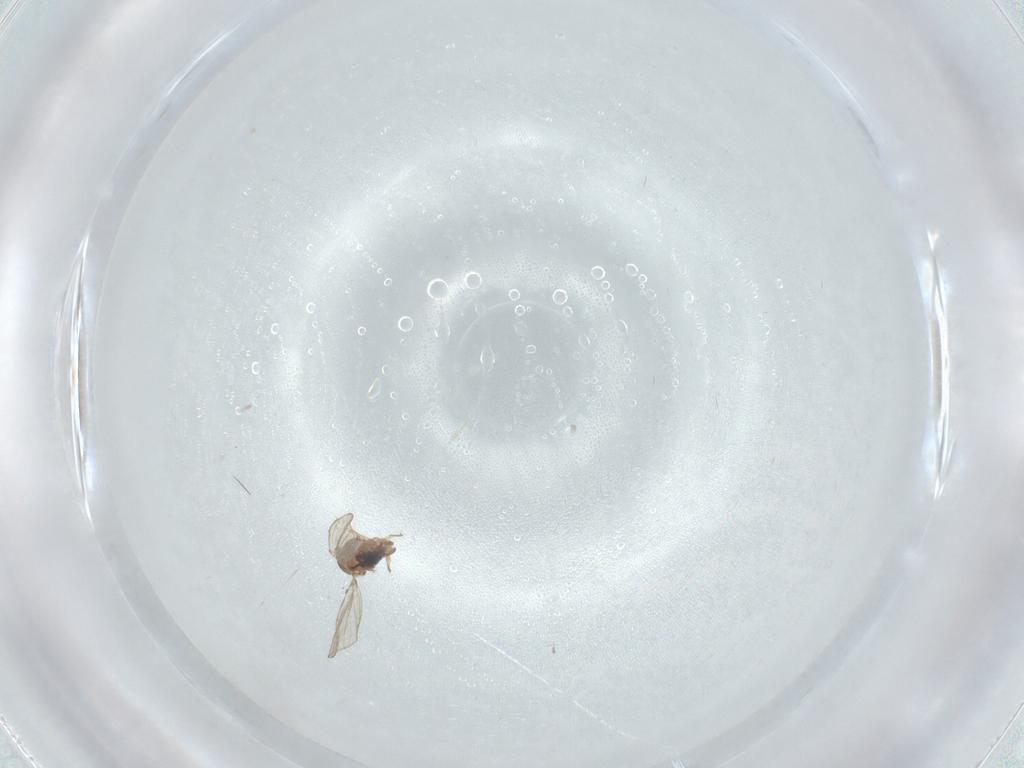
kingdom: Animalia
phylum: Arthropoda
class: Insecta
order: Diptera
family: Psychodidae
